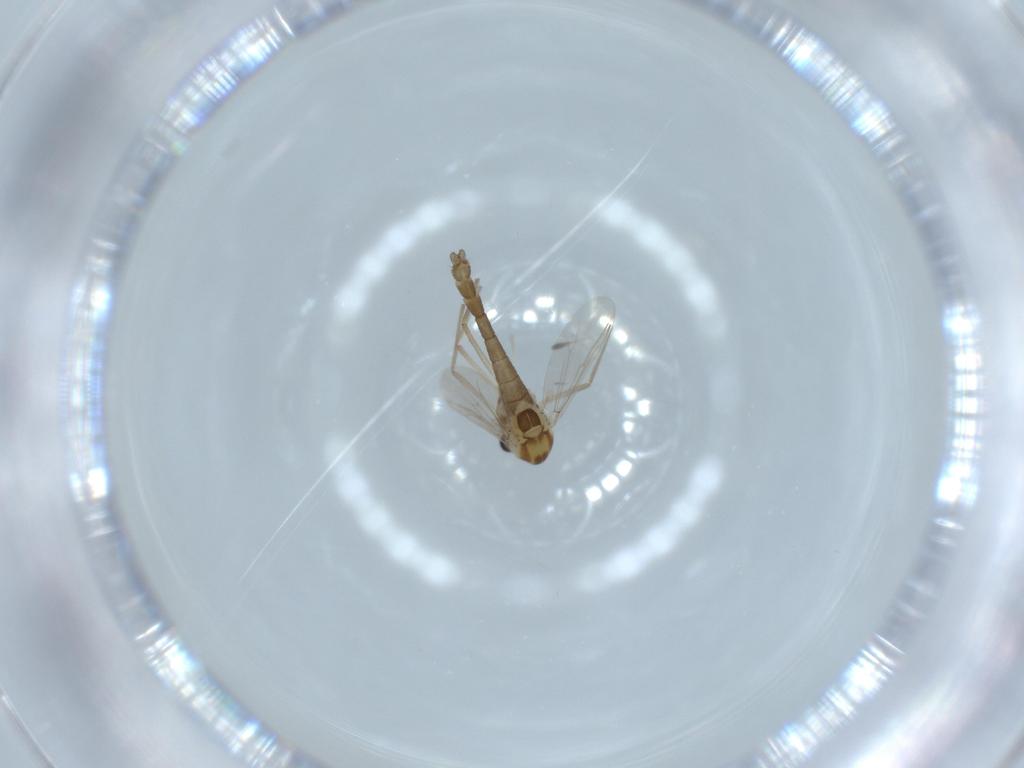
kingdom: Animalia
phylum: Arthropoda
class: Insecta
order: Diptera
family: Chironomidae
